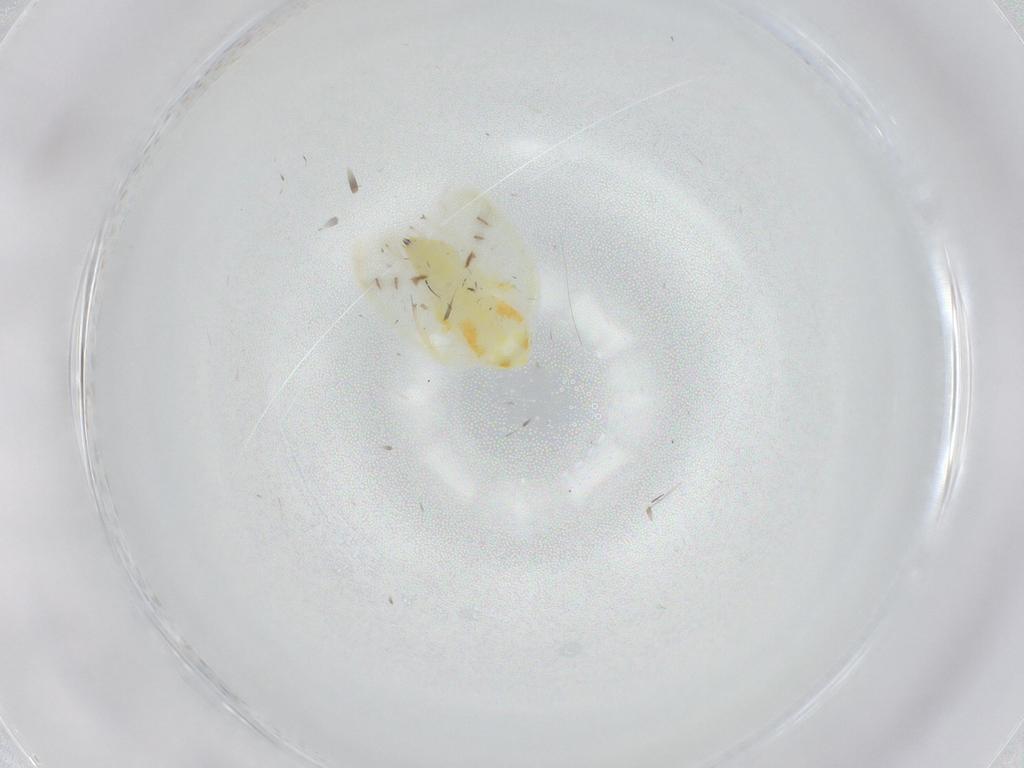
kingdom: Animalia
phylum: Arthropoda
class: Insecta
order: Hemiptera
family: Cicadellidae
